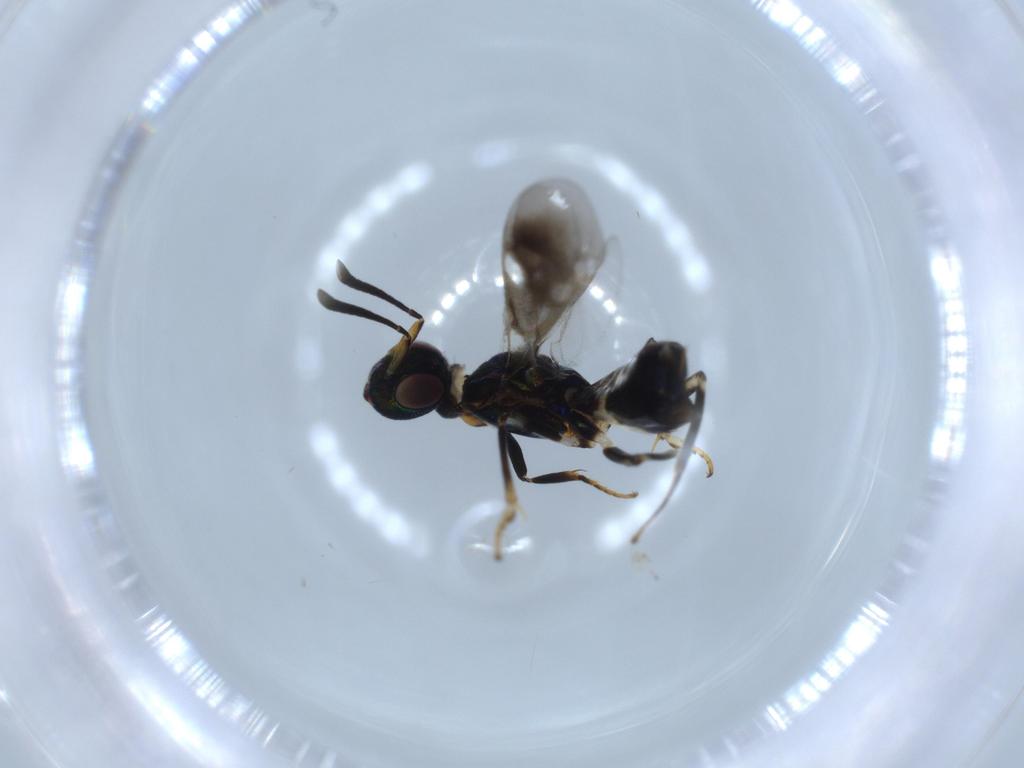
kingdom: Animalia
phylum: Arthropoda
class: Insecta
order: Hymenoptera
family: Eupelmidae
